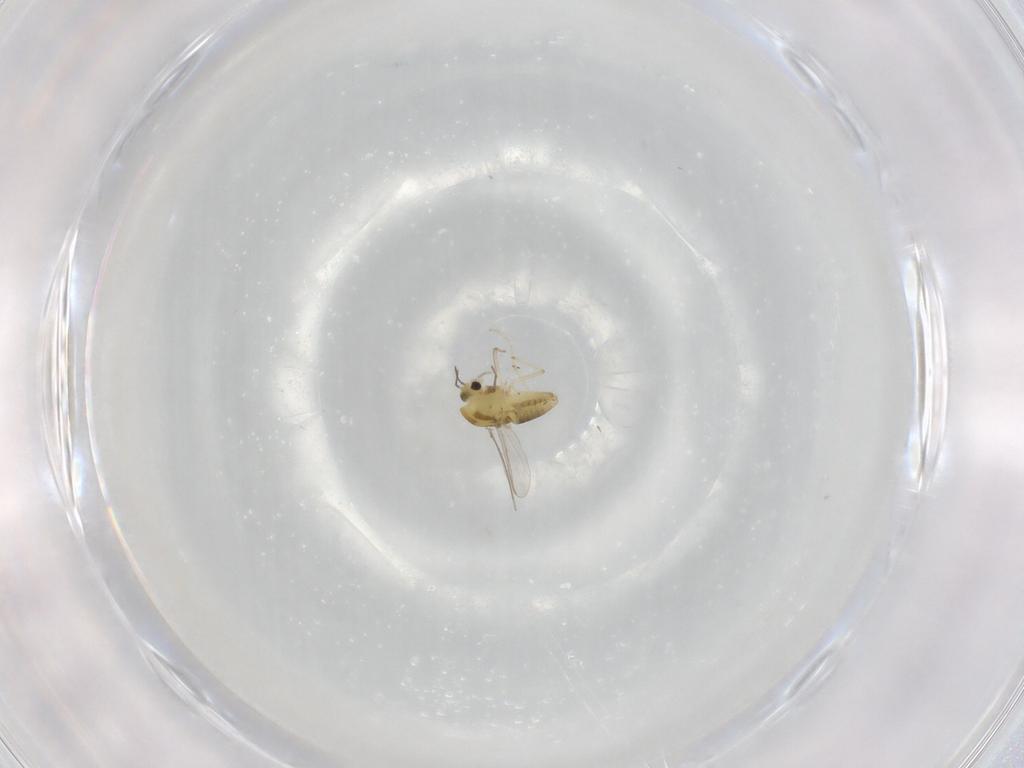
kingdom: Animalia
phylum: Arthropoda
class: Insecta
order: Diptera
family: Chironomidae
